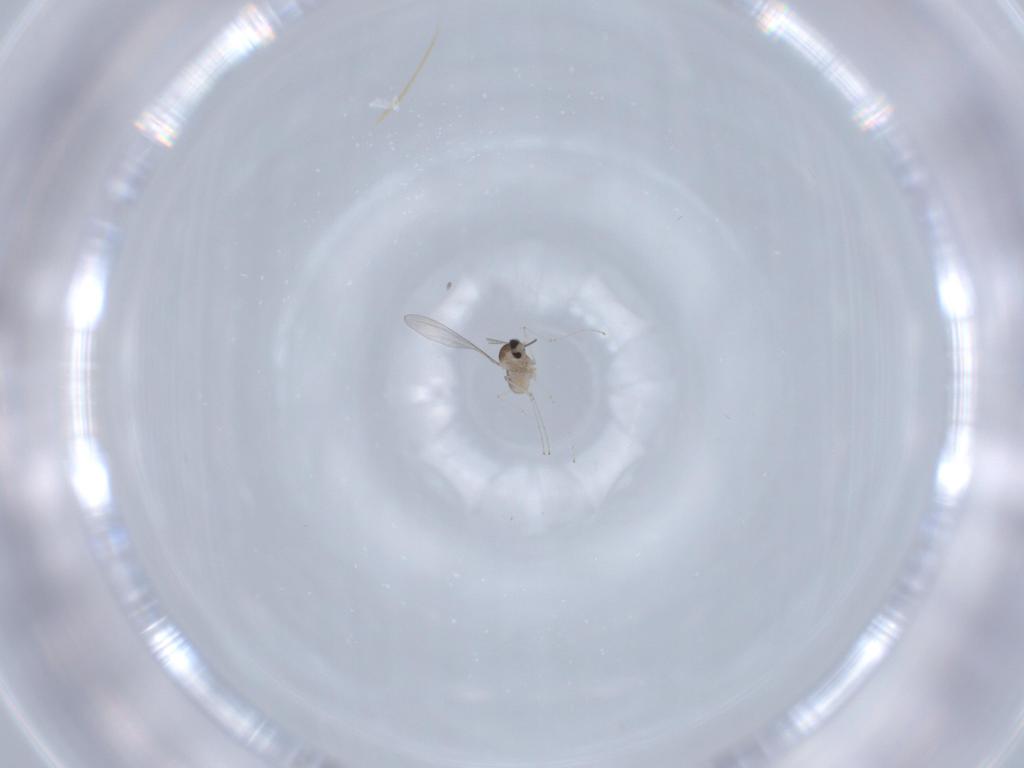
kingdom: Animalia
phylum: Arthropoda
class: Insecta
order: Diptera
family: Cecidomyiidae
